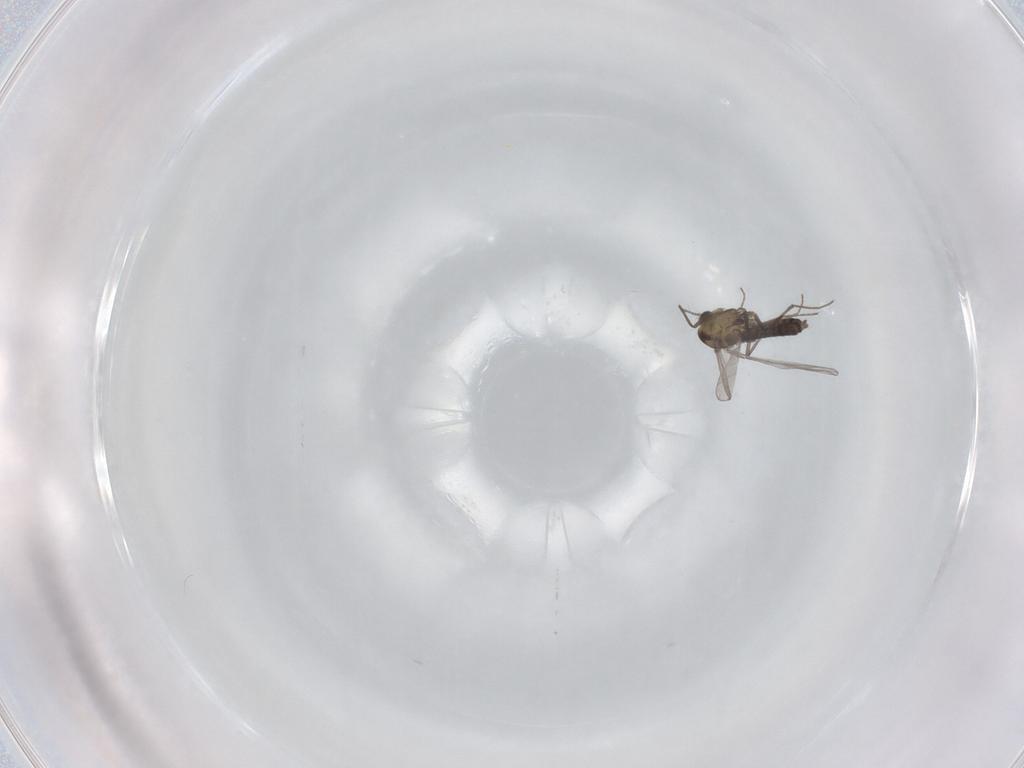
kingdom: Animalia
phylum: Arthropoda
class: Insecta
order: Diptera
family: Chironomidae
